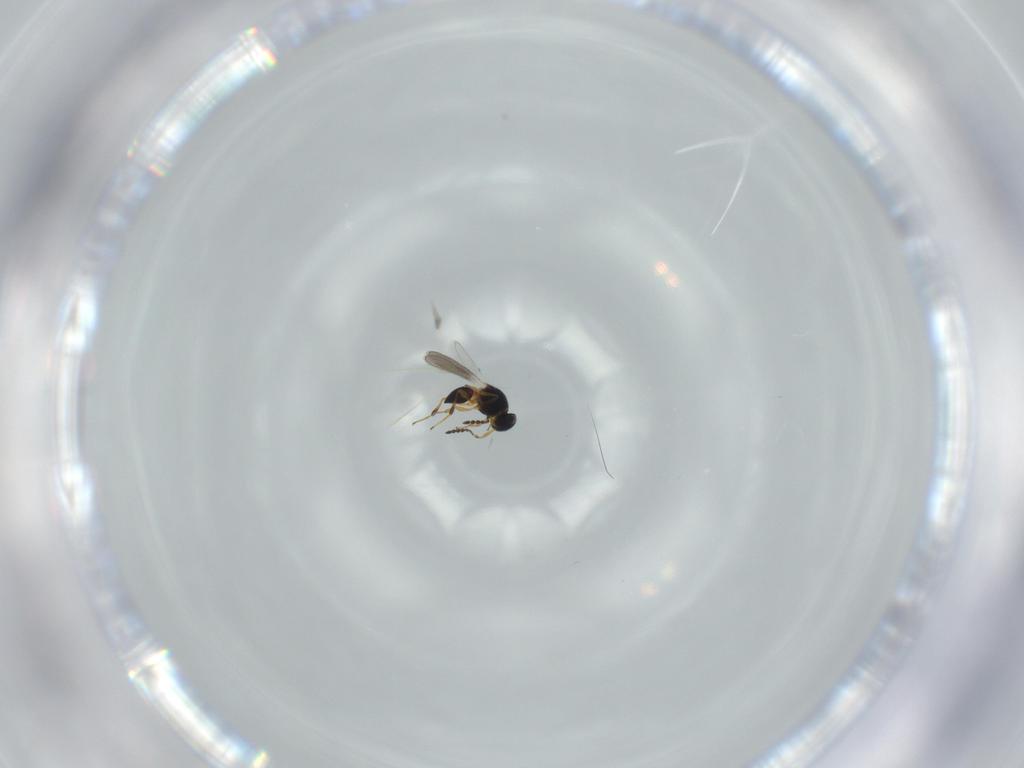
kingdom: Animalia
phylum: Arthropoda
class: Insecta
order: Hymenoptera
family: Platygastridae
